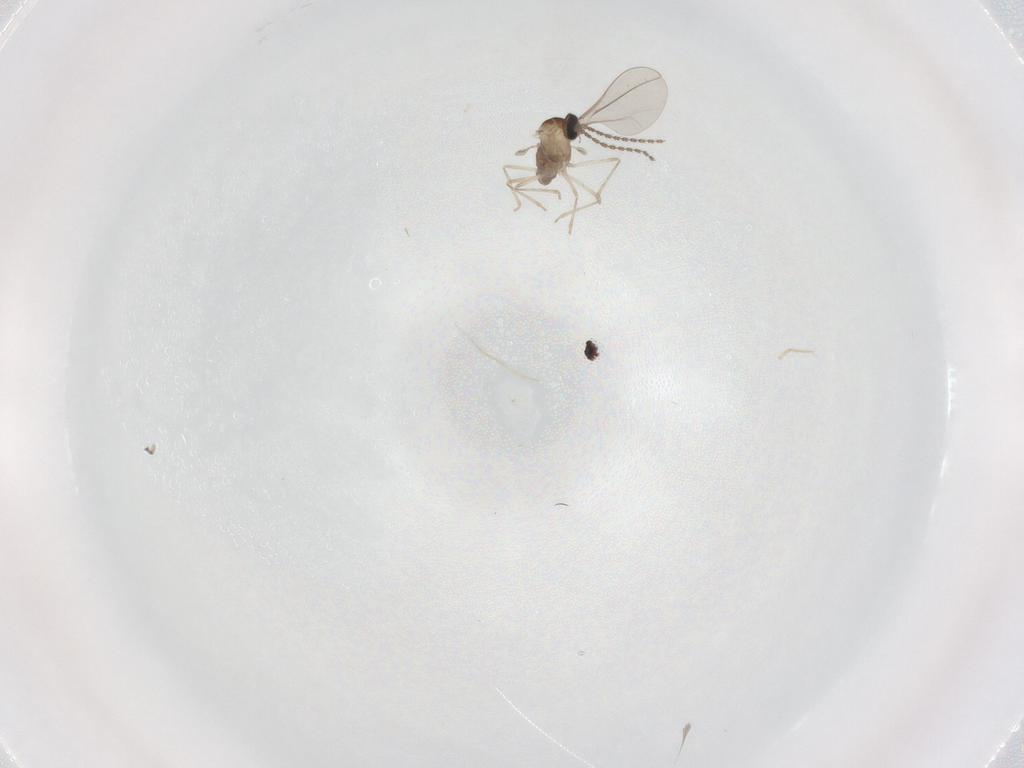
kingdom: Animalia
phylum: Arthropoda
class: Insecta
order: Diptera
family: Cecidomyiidae
